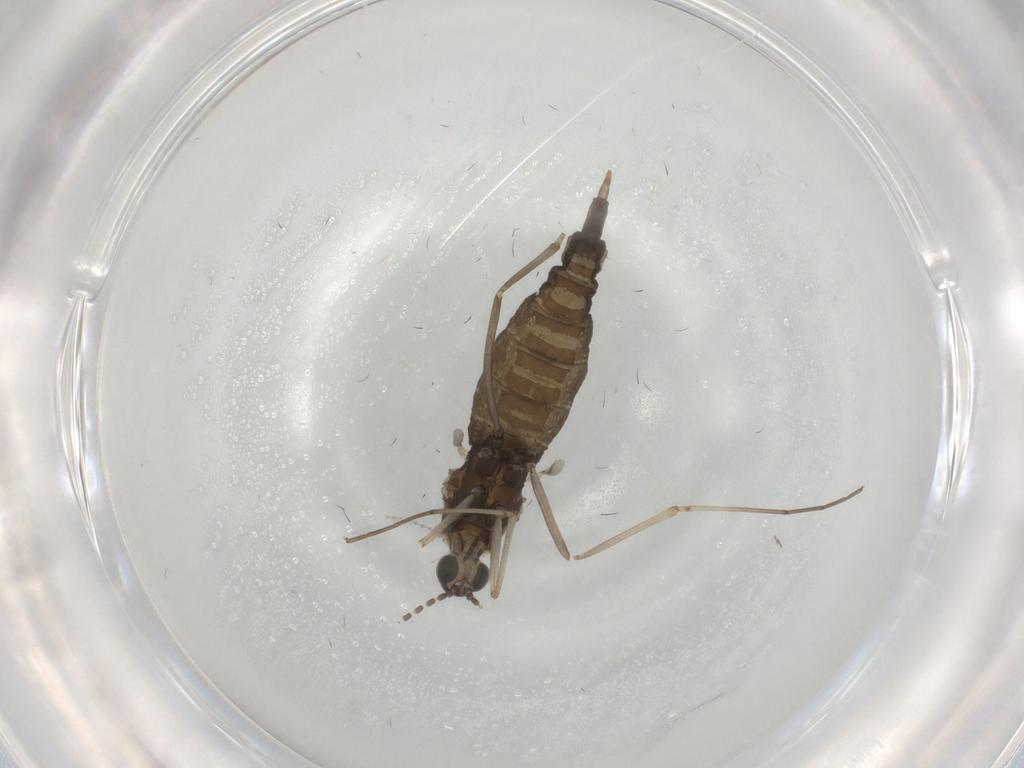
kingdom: Animalia
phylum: Arthropoda
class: Insecta
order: Diptera
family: Cecidomyiidae
